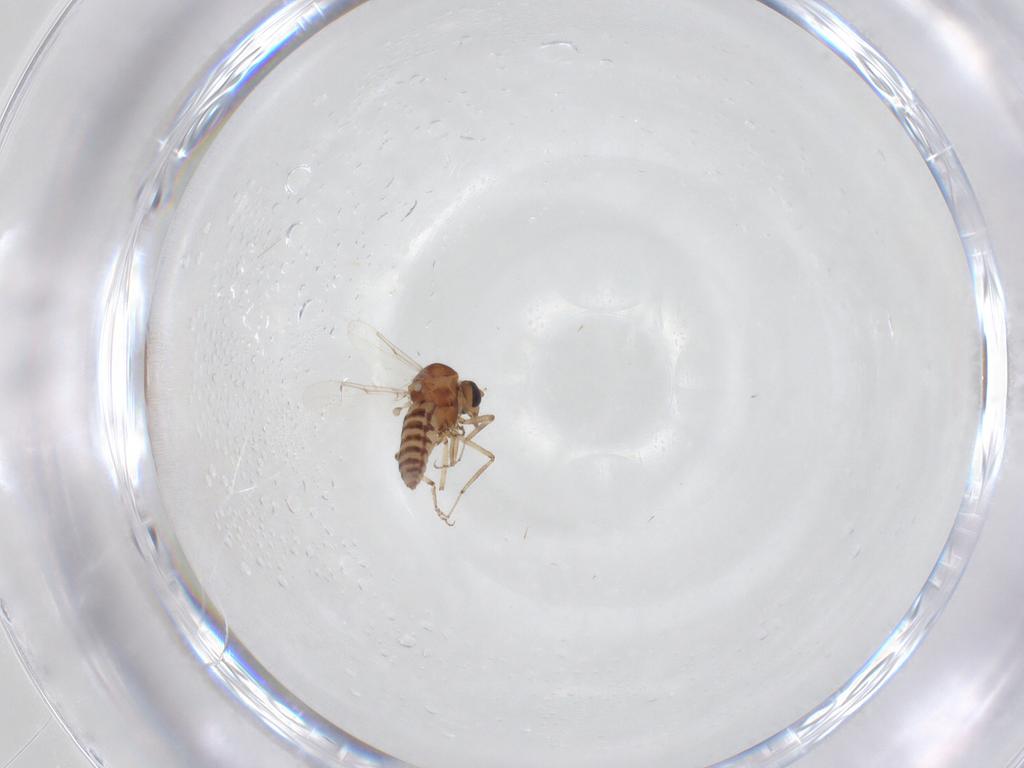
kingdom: Animalia
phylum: Arthropoda
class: Insecta
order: Diptera
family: Ceratopogonidae
